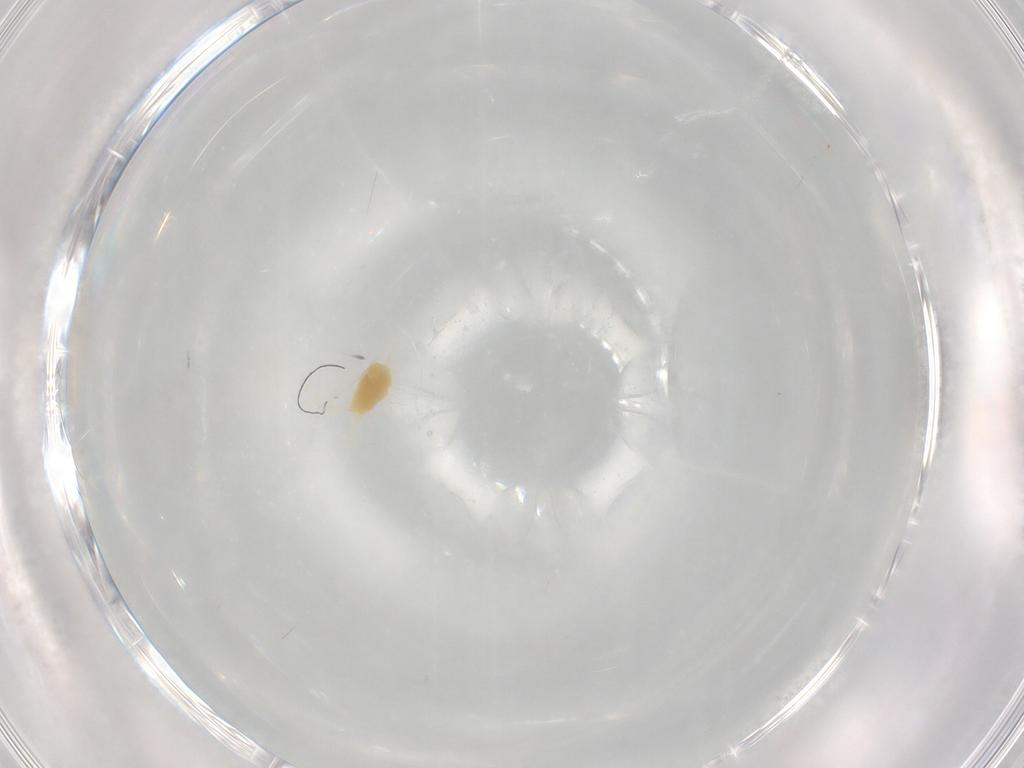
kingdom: Animalia
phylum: Arthropoda
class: Arachnida
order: Trombidiformes
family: Tetranychidae
